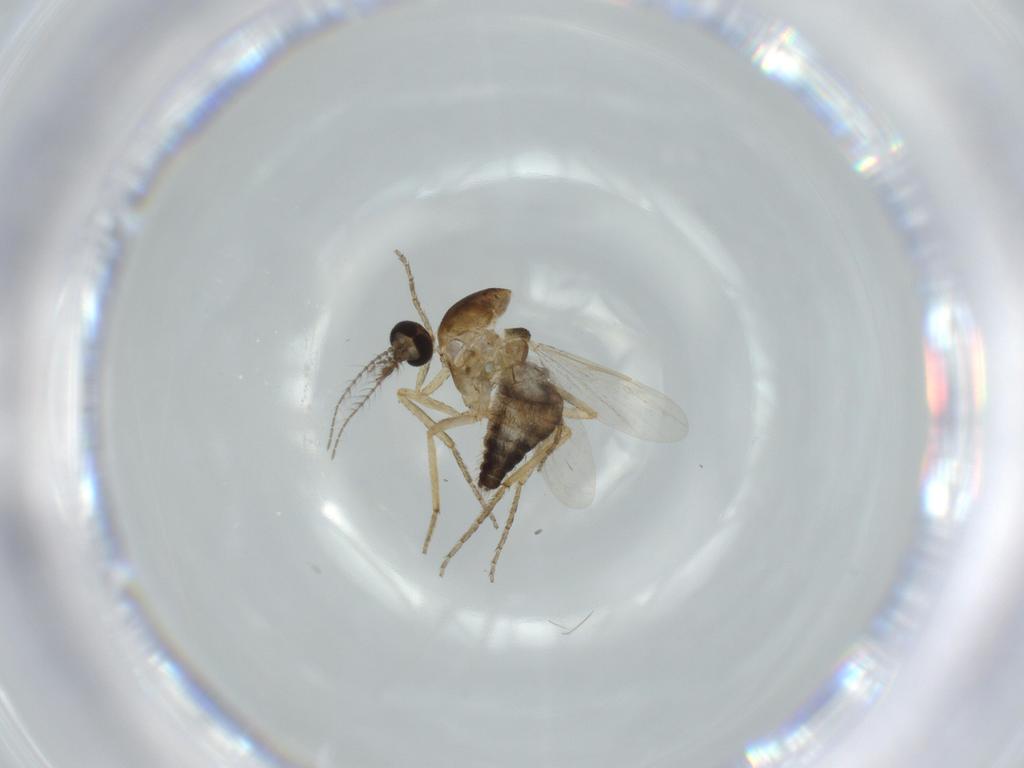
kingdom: Animalia
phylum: Arthropoda
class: Insecta
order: Diptera
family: Ceratopogonidae
